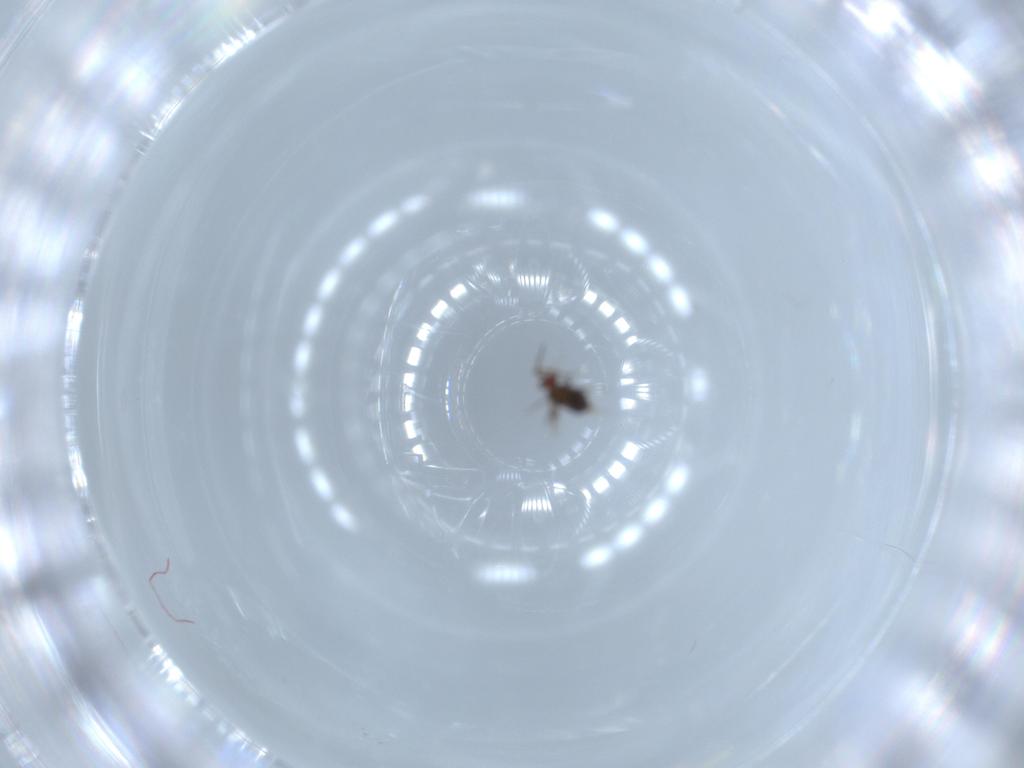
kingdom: Animalia
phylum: Arthropoda
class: Insecta
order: Hymenoptera
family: Trichogrammatidae
